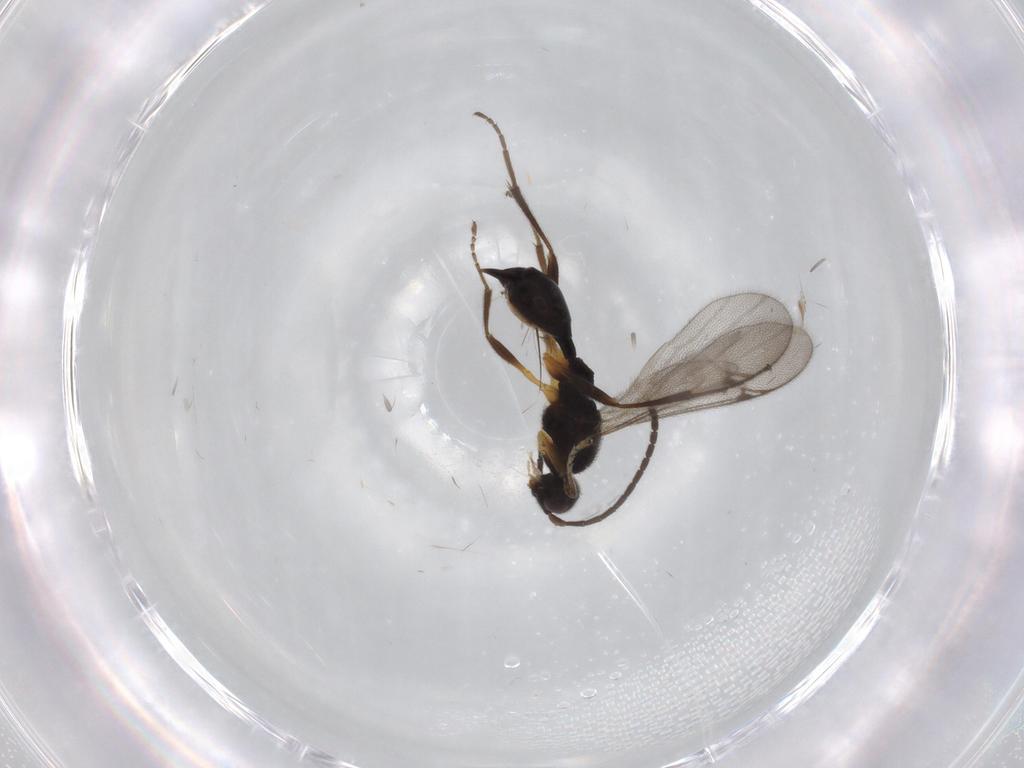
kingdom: Animalia
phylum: Arthropoda
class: Insecta
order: Hymenoptera
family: Proctotrupidae
